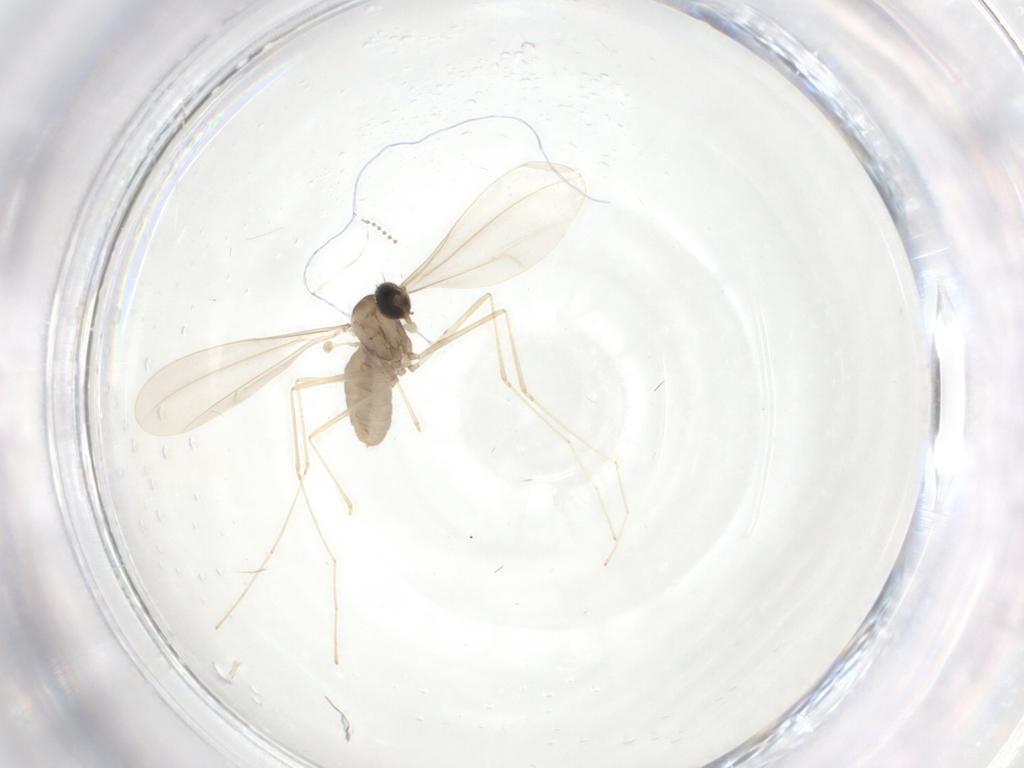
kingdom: Animalia
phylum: Arthropoda
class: Insecta
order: Diptera
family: Cecidomyiidae
